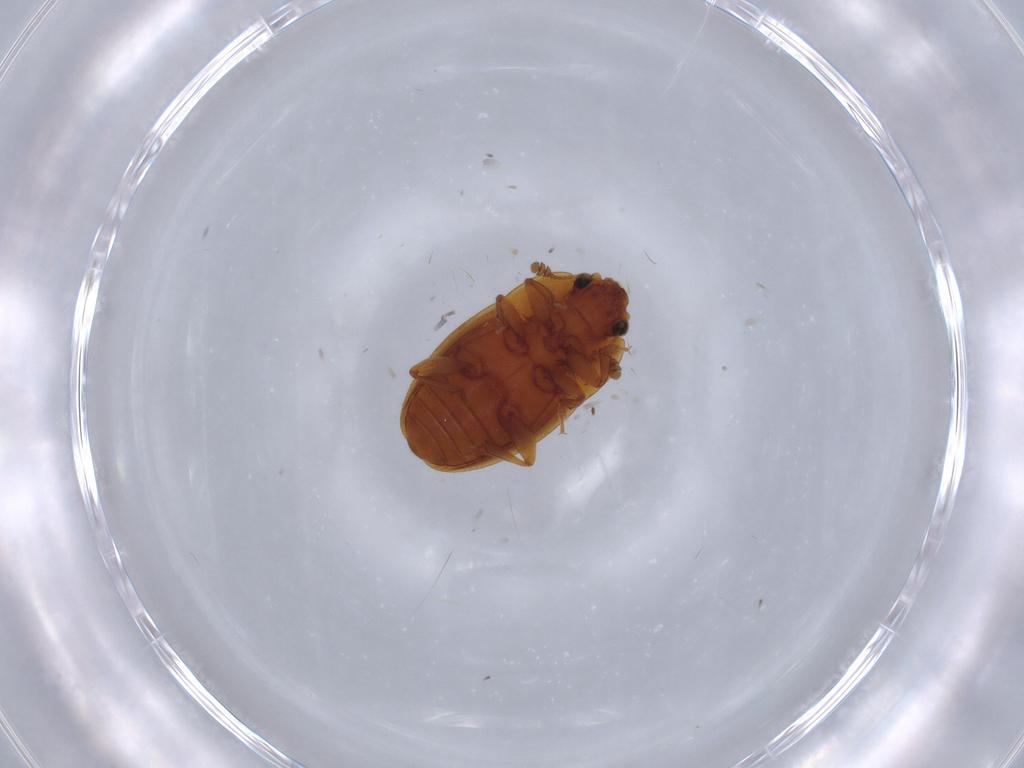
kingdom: Animalia
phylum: Arthropoda
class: Insecta
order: Coleoptera
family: Nitidulidae
